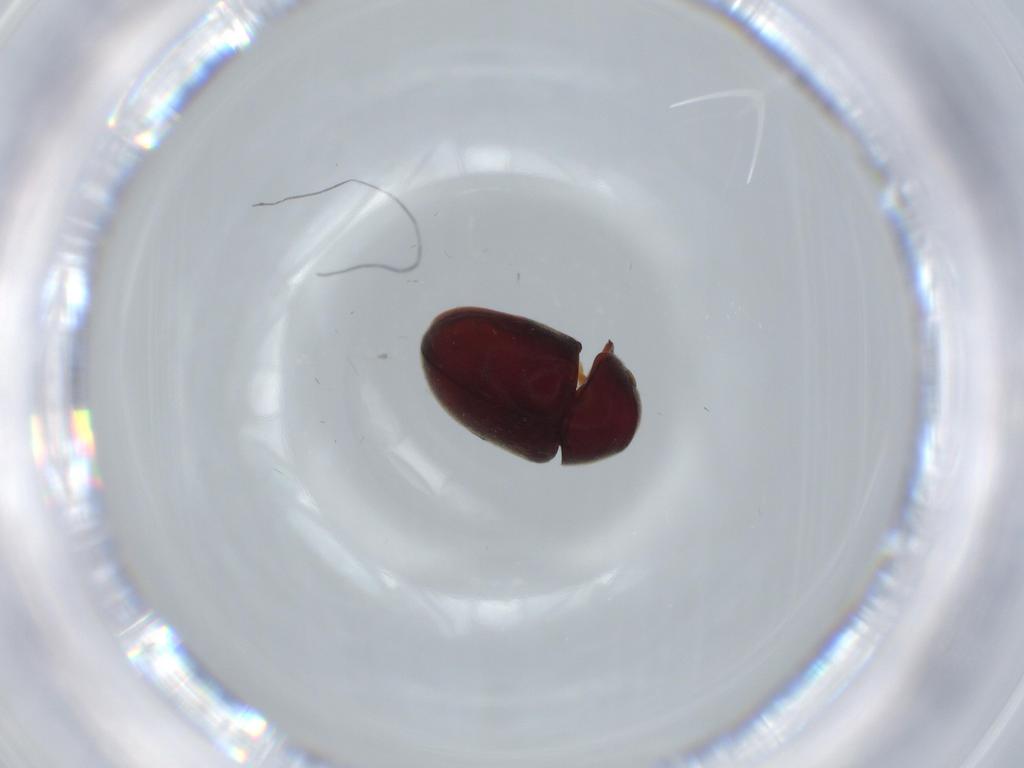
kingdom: Animalia
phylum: Arthropoda
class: Insecta
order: Coleoptera
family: Ptinidae
